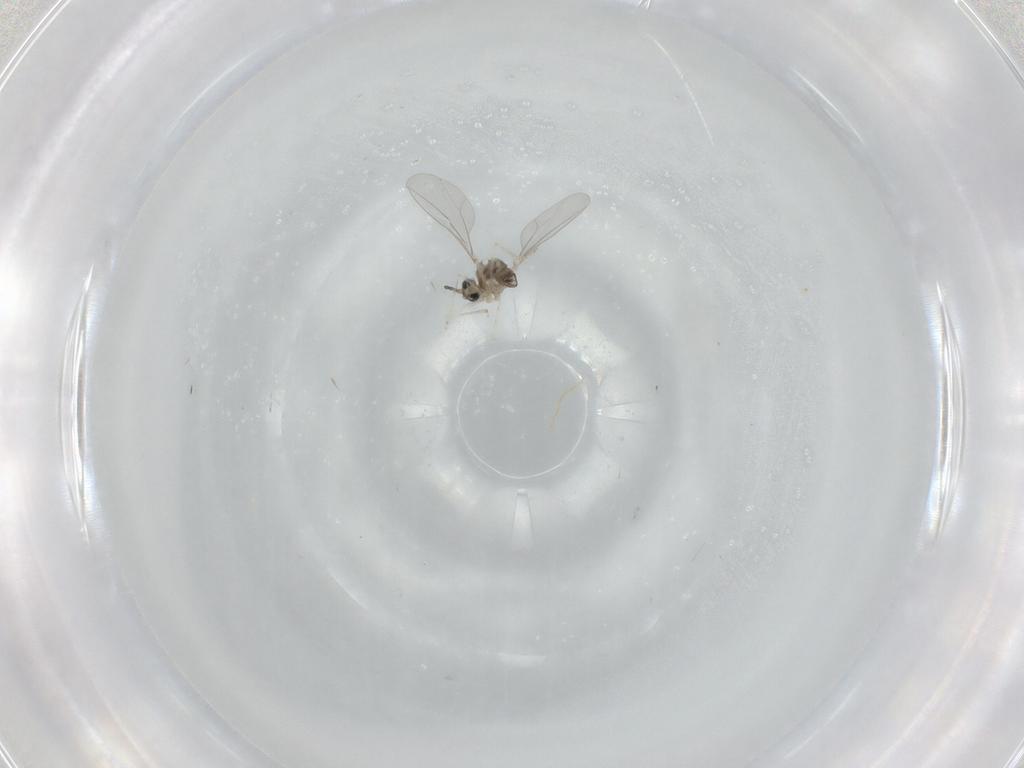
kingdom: Animalia
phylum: Arthropoda
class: Insecta
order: Diptera
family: Cecidomyiidae
